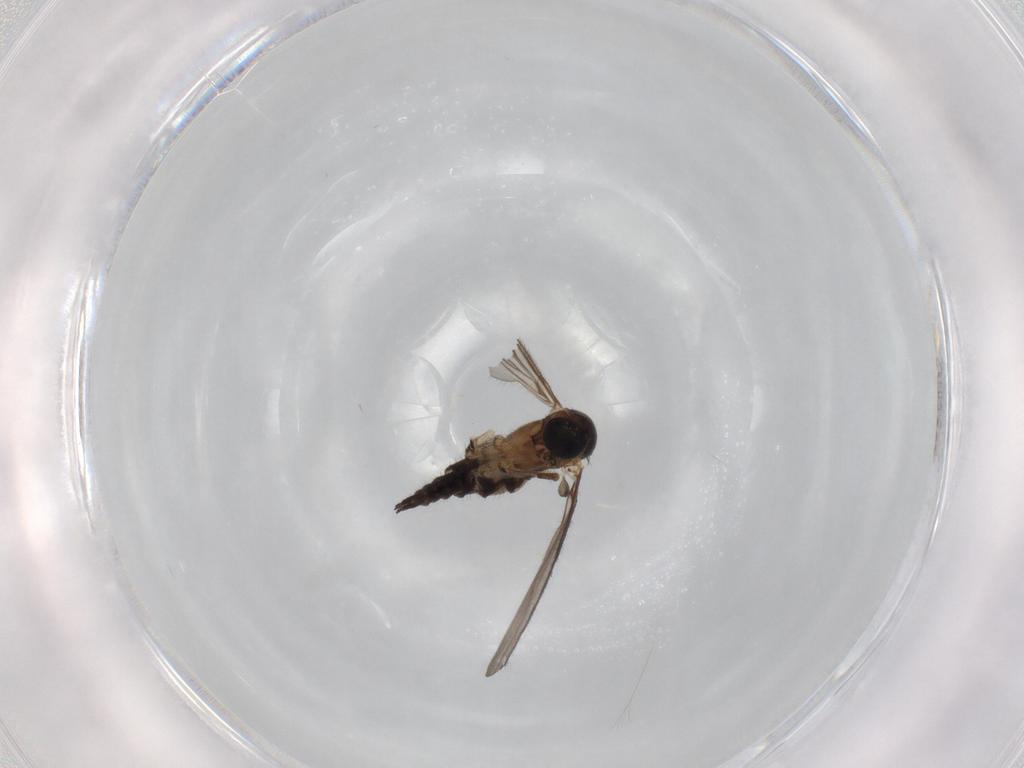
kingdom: Animalia
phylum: Arthropoda
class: Insecta
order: Diptera
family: Sciaridae
